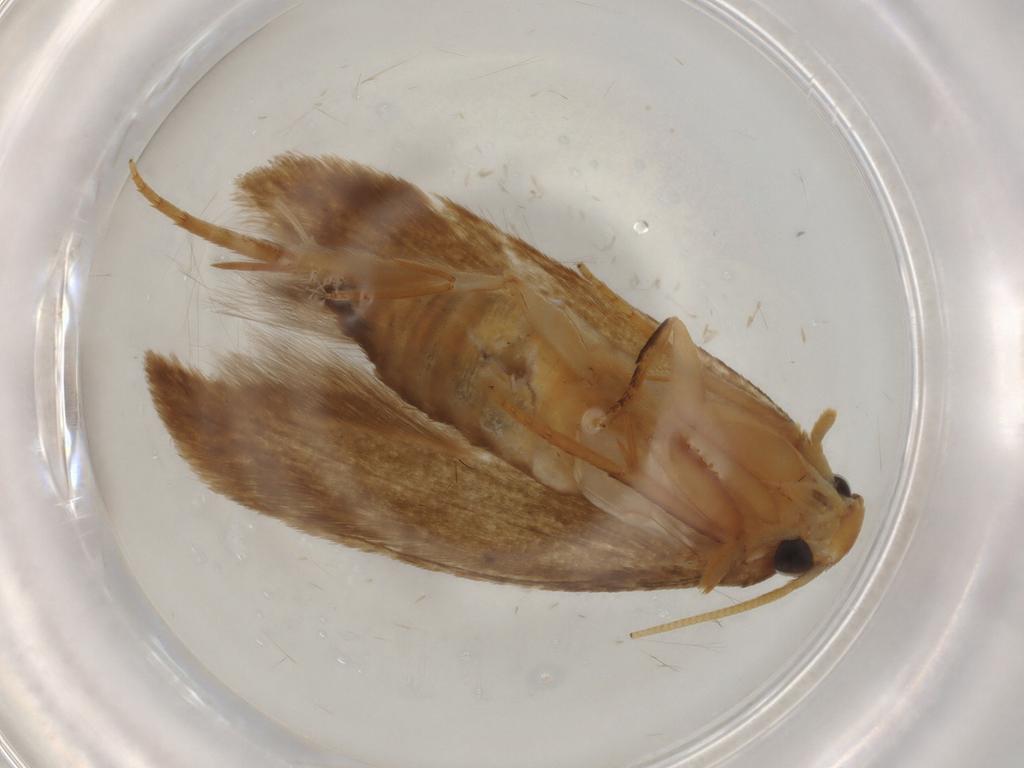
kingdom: Animalia
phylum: Arthropoda
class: Insecta
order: Lepidoptera
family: Tineidae
